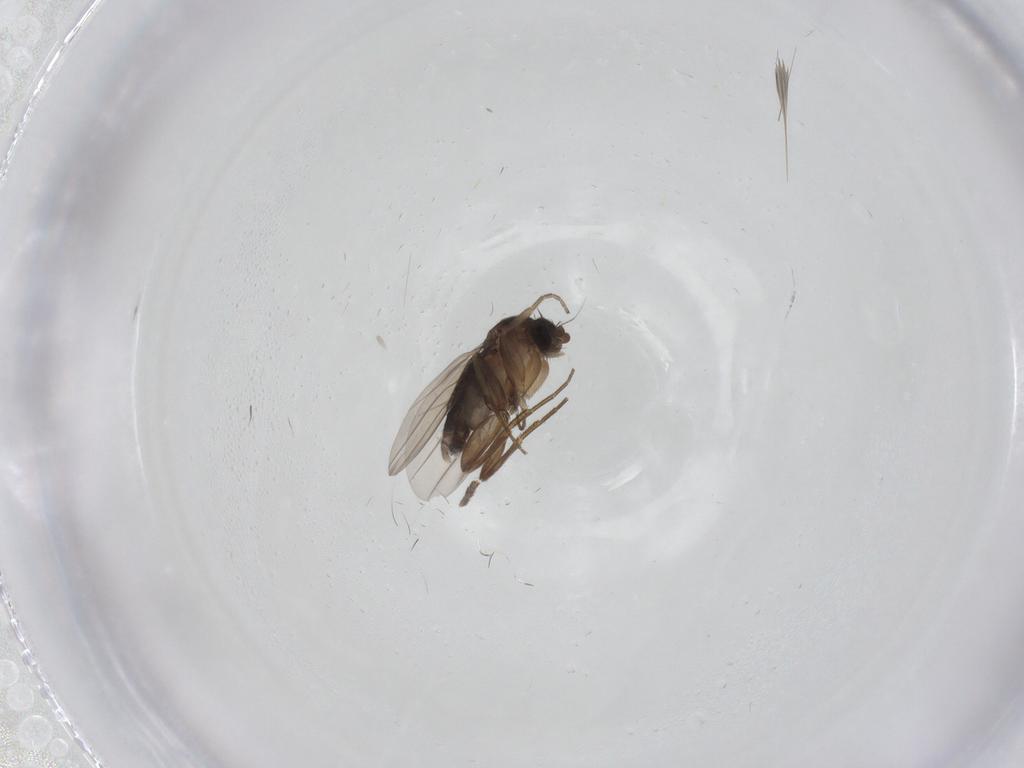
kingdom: Animalia
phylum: Arthropoda
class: Insecta
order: Diptera
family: Phoridae
